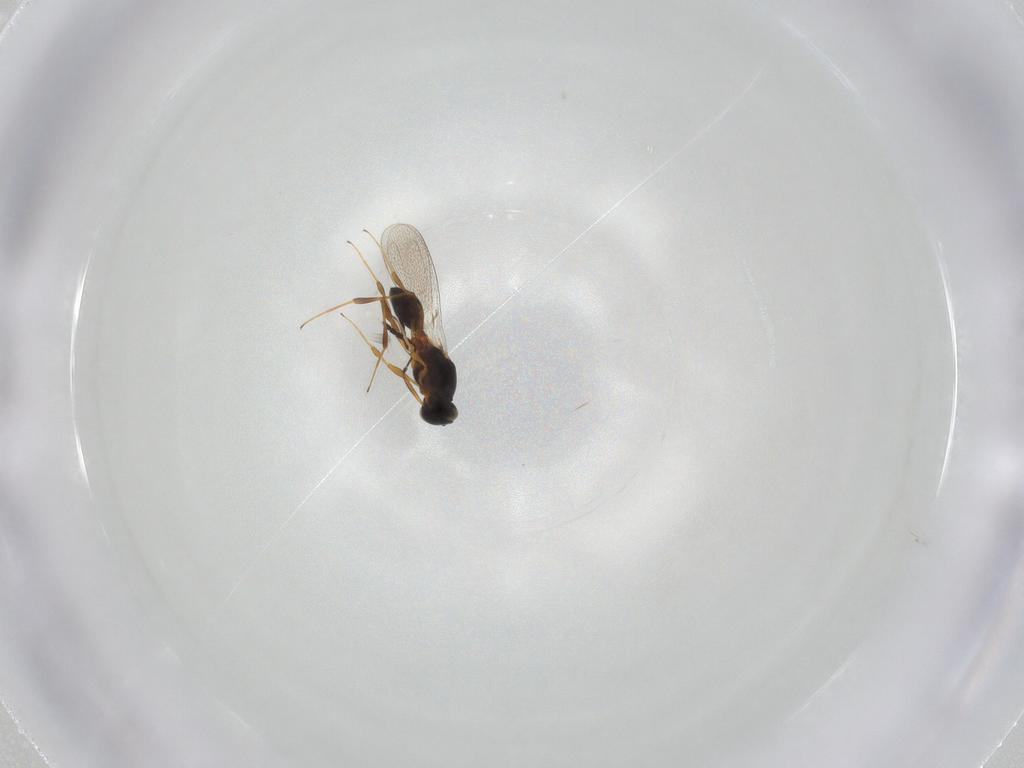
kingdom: Animalia
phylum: Arthropoda
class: Insecta
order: Hymenoptera
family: Platygastridae
